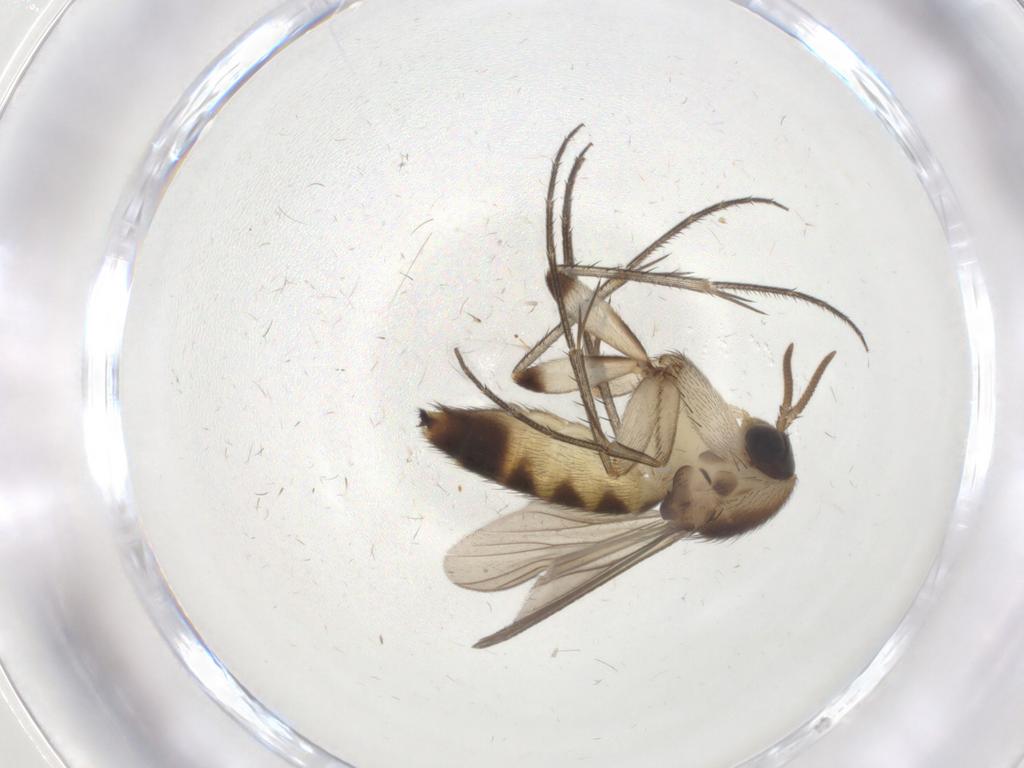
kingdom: Animalia
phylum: Arthropoda
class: Insecta
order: Diptera
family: Mycetophilidae
